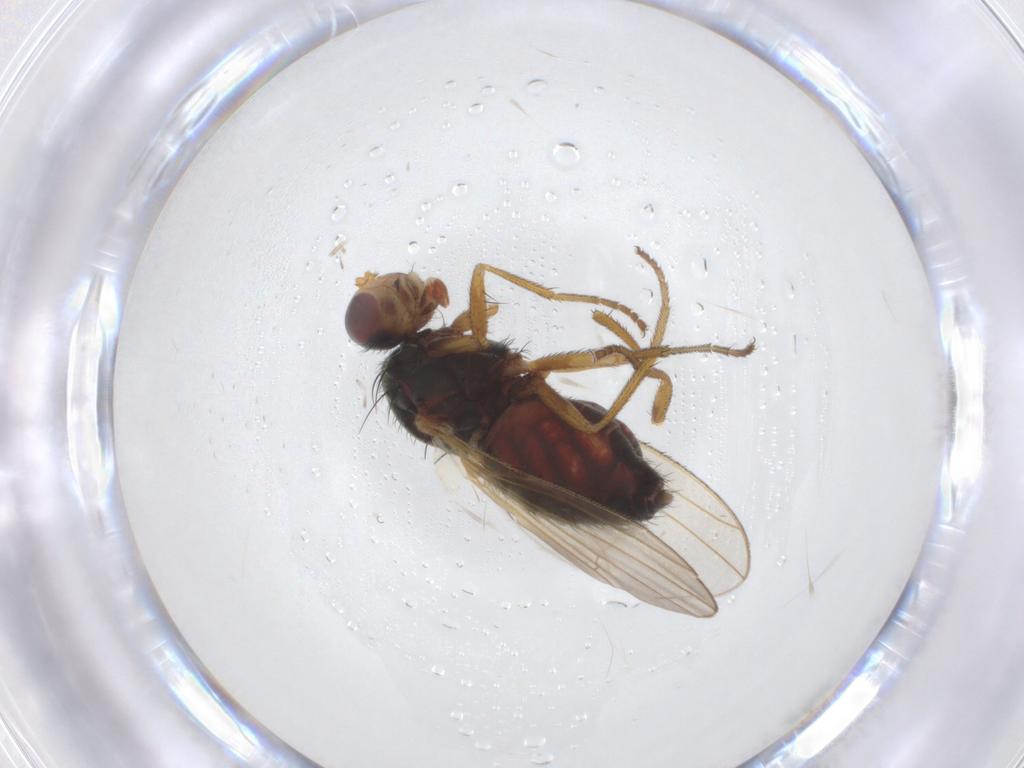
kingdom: Animalia
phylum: Arthropoda
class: Insecta
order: Diptera
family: Heleomyzidae
